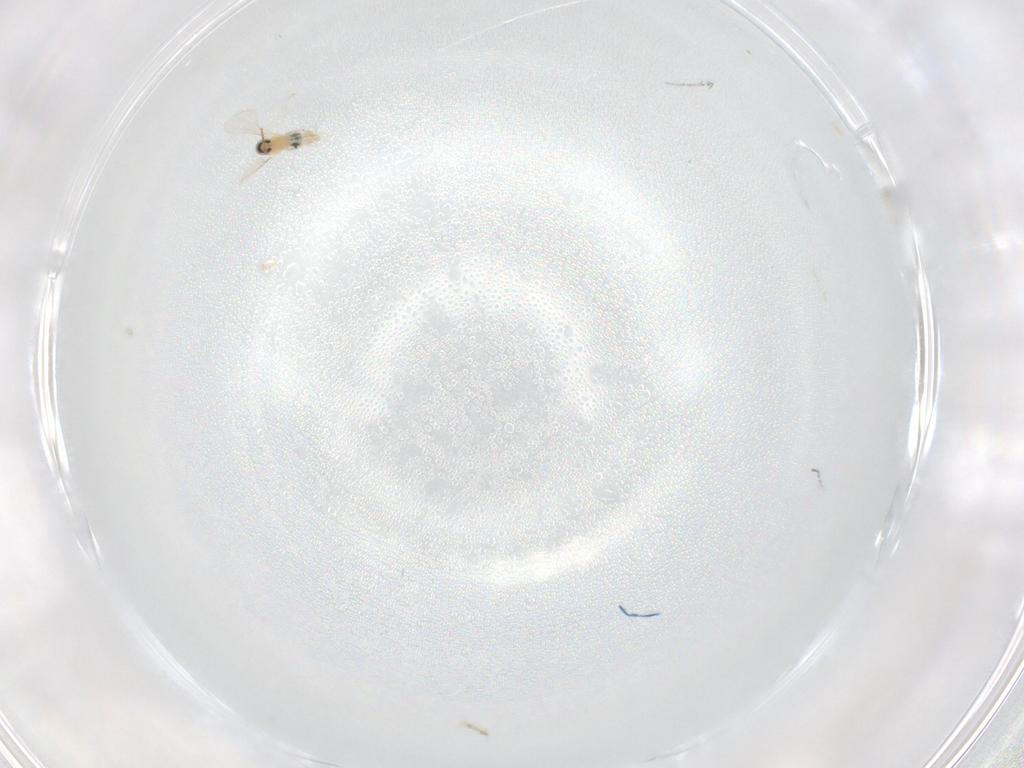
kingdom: Animalia
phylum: Arthropoda
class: Insecta
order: Diptera
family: Cecidomyiidae
